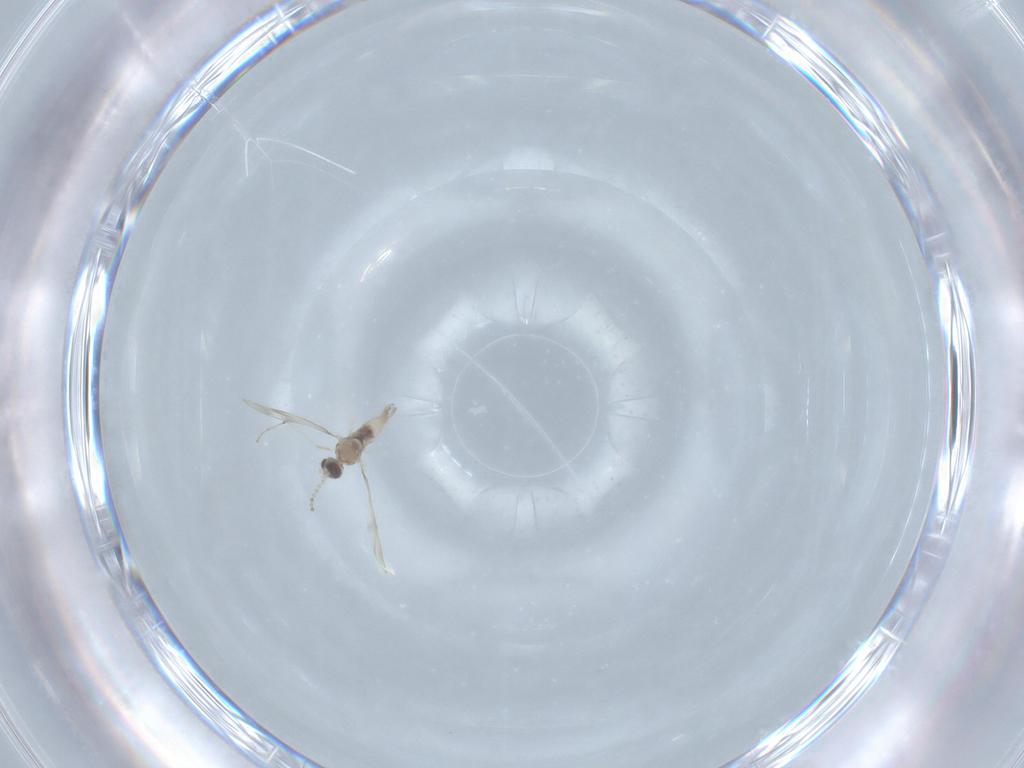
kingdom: Animalia
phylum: Arthropoda
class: Insecta
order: Diptera
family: Cecidomyiidae
